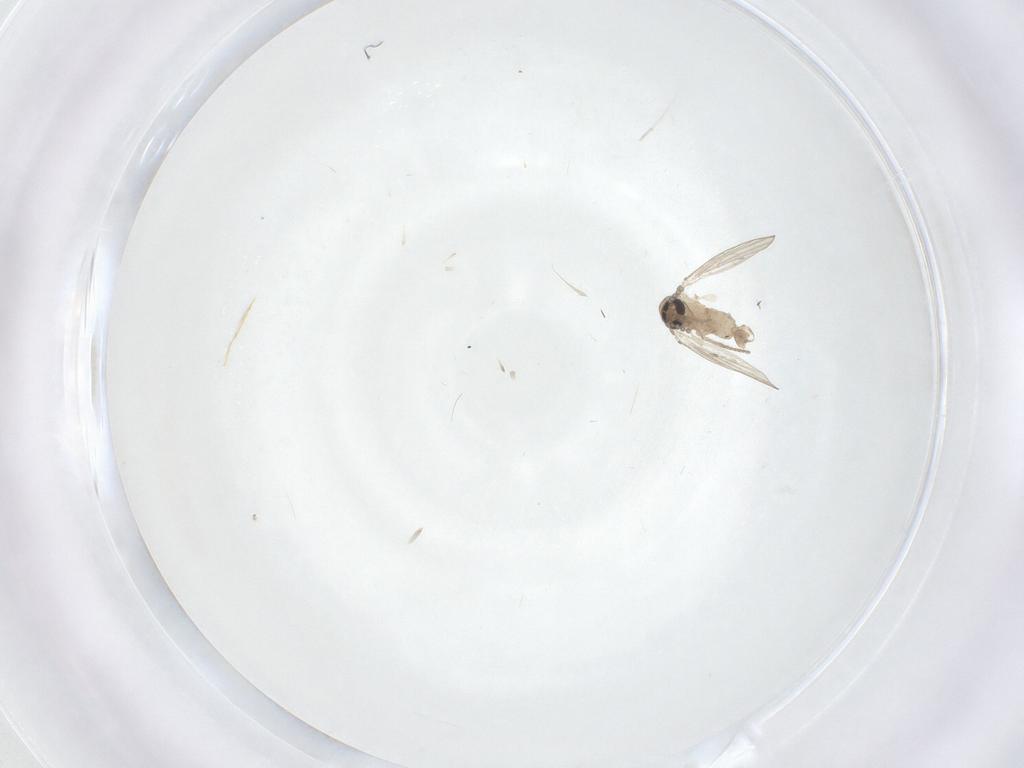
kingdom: Animalia
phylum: Arthropoda
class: Insecta
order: Diptera
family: Psychodidae
